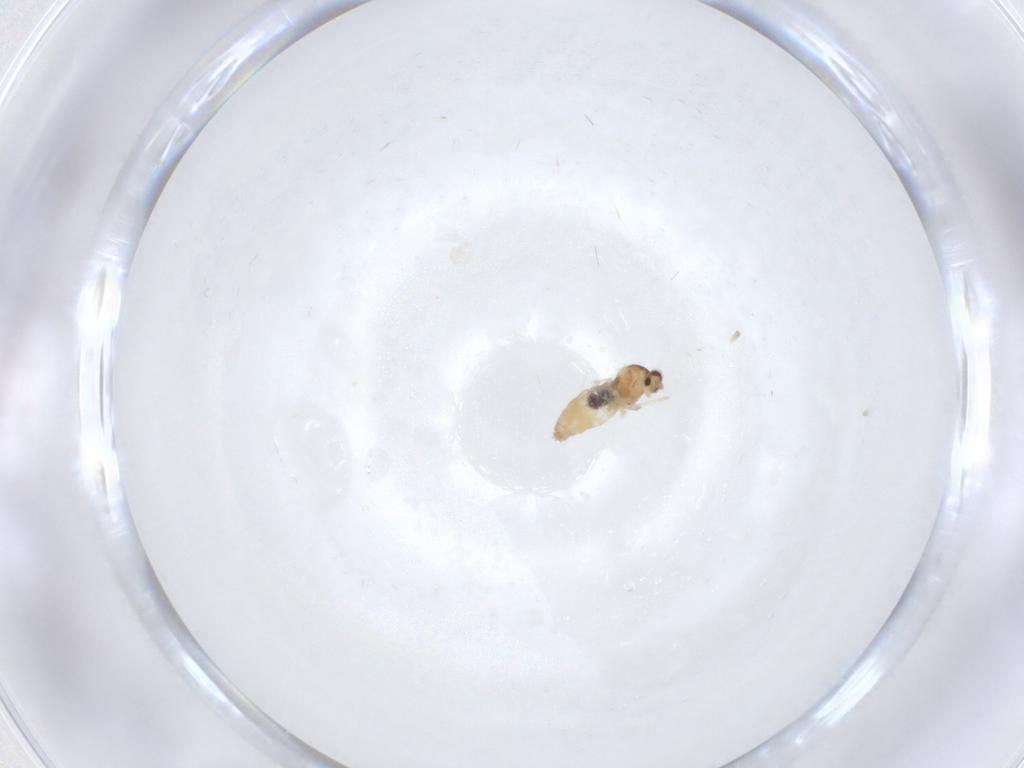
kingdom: Animalia
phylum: Arthropoda
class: Insecta
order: Diptera
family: Cecidomyiidae
